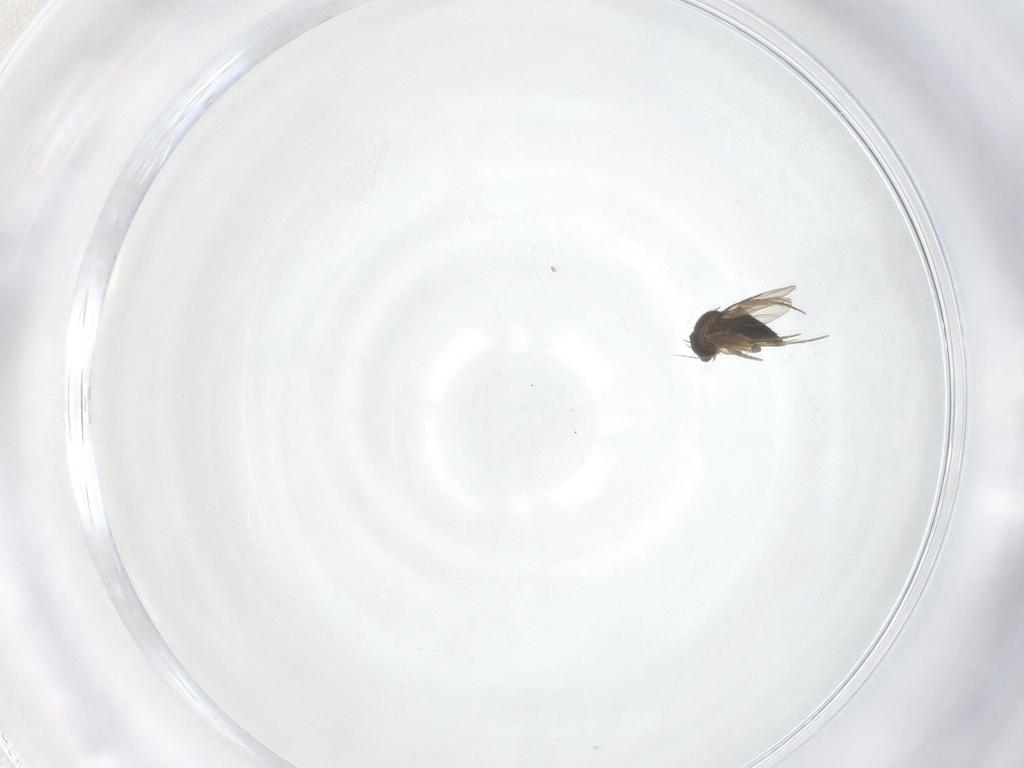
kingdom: Animalia
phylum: Arthropoda
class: Insecta
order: Diptera
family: Phoridae
